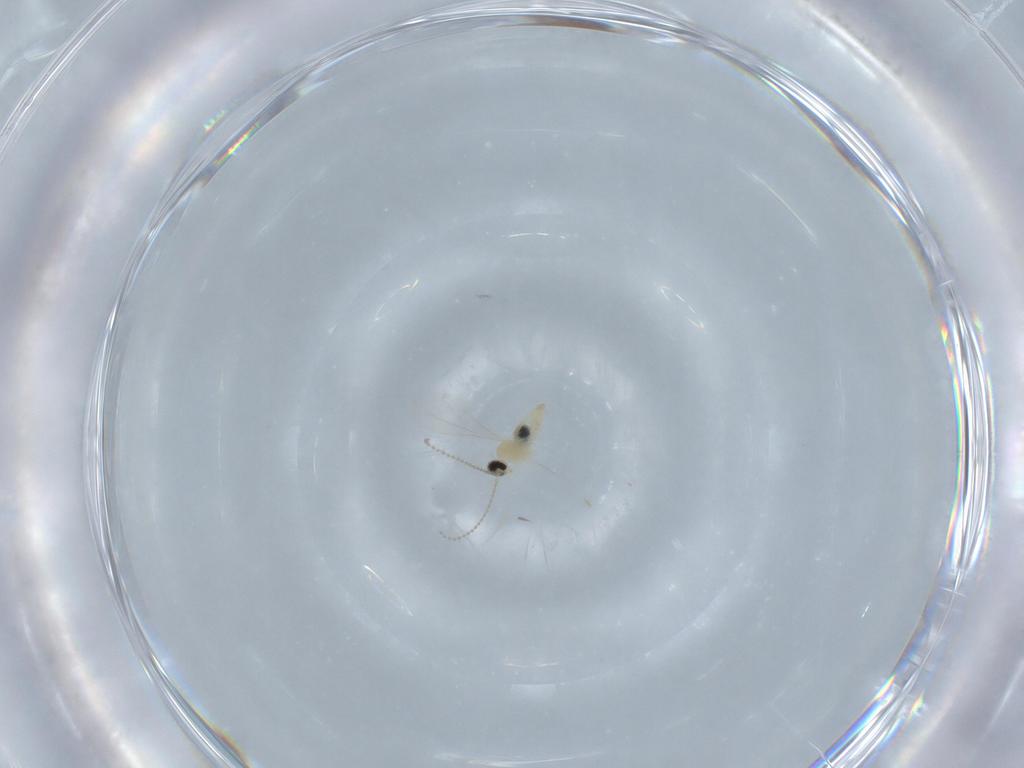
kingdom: Animalia
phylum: Arthropoda
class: Insecta
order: Diptera
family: Cecidomyiidae
